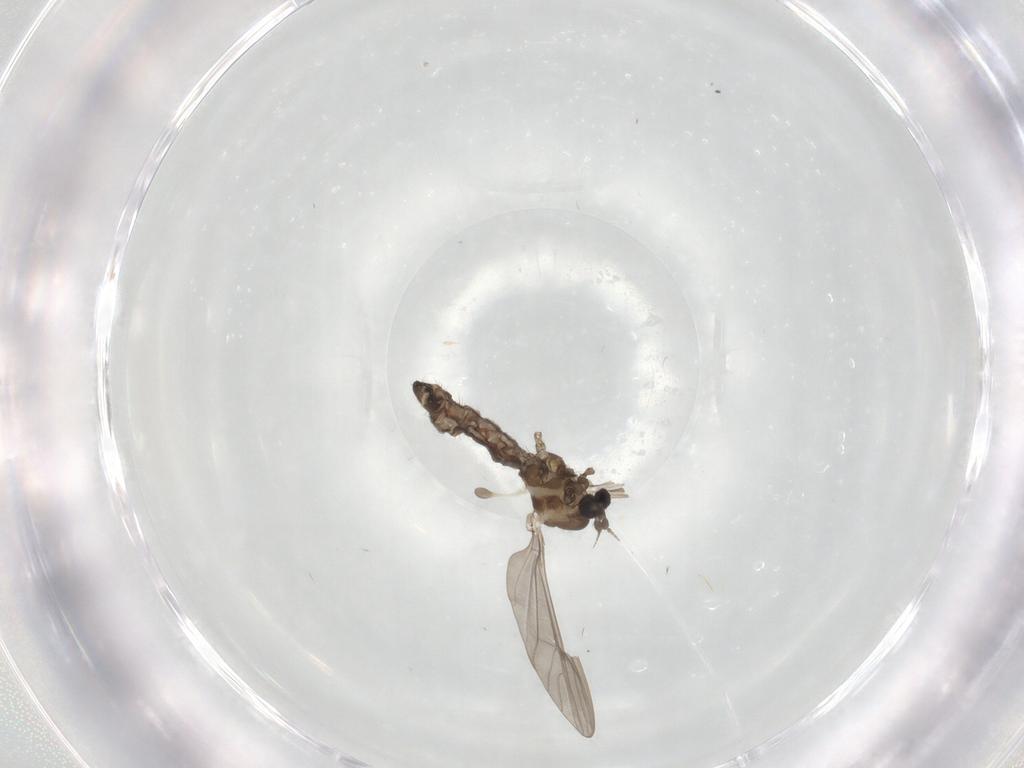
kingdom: Animalia
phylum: Arthropoda
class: Insecta
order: Diptera
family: Limoniidae
